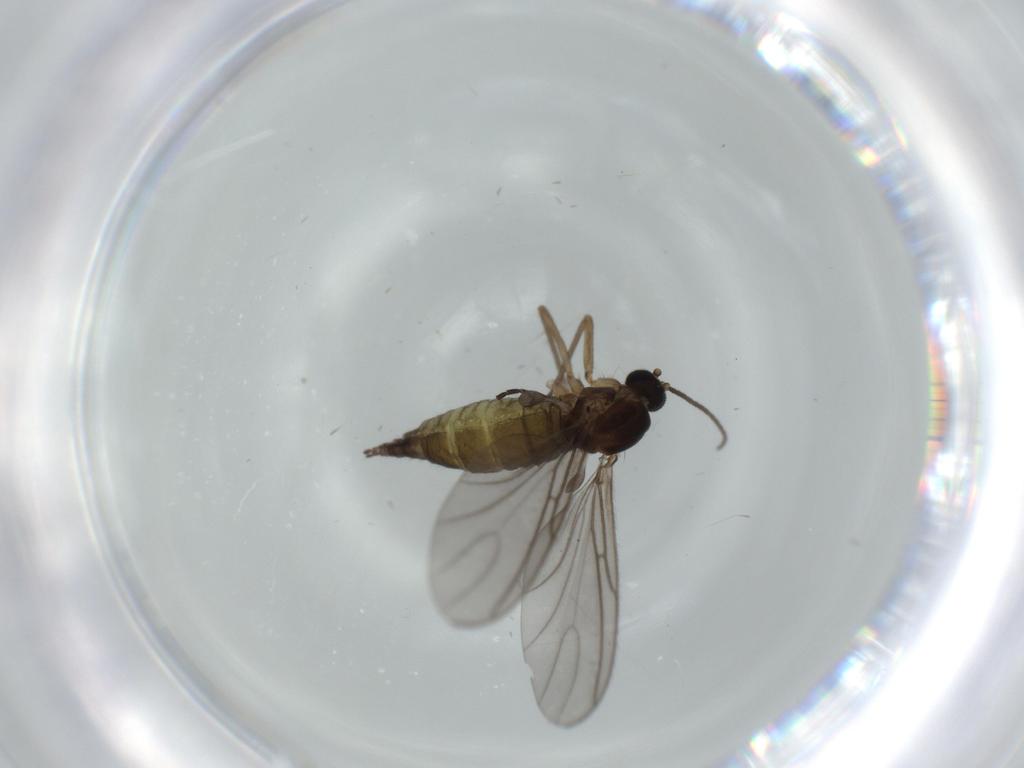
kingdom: Animalia
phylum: Arthropoda
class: Insecta
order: Diptera
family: Sciaridae
